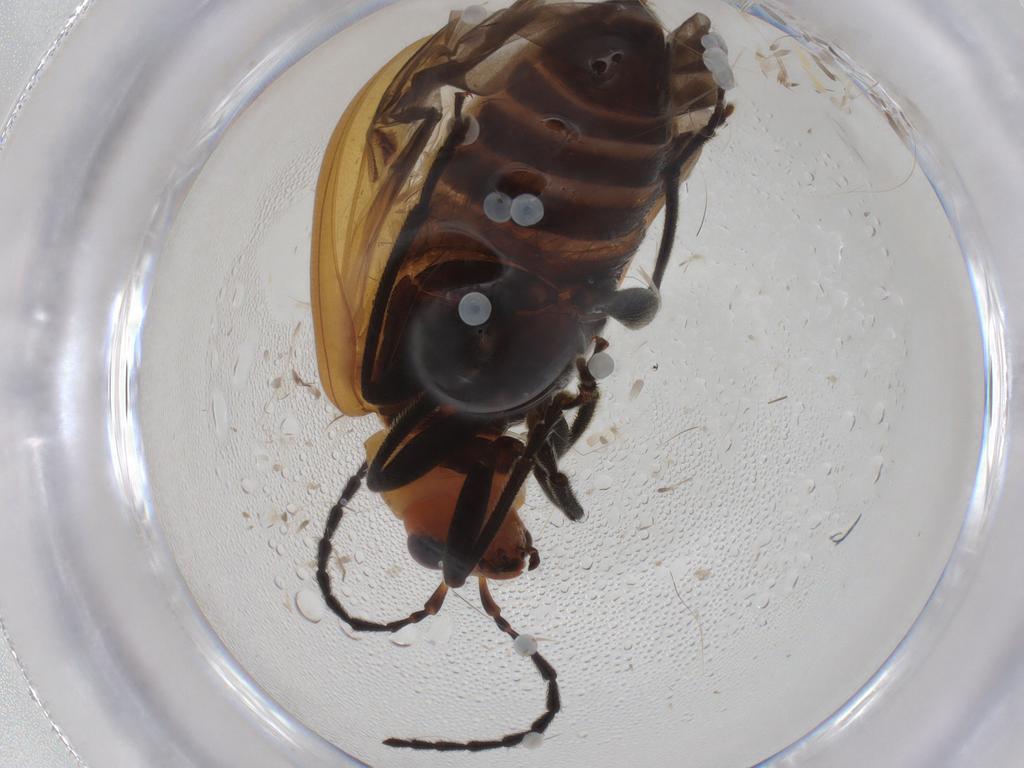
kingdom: Animalia
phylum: Arthropoda
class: Insecta
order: Coleoptera
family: Chrysomelidae
